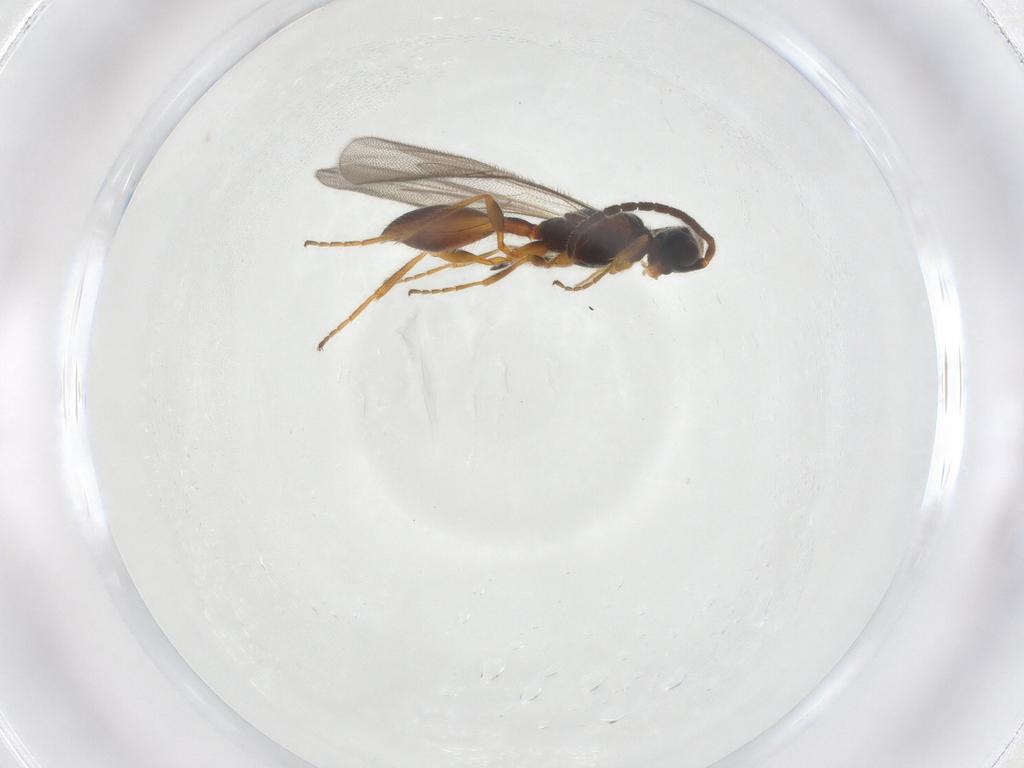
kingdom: Animalia
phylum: Arthropoda
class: Insecta
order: Hymenoptera
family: Diapriidae
